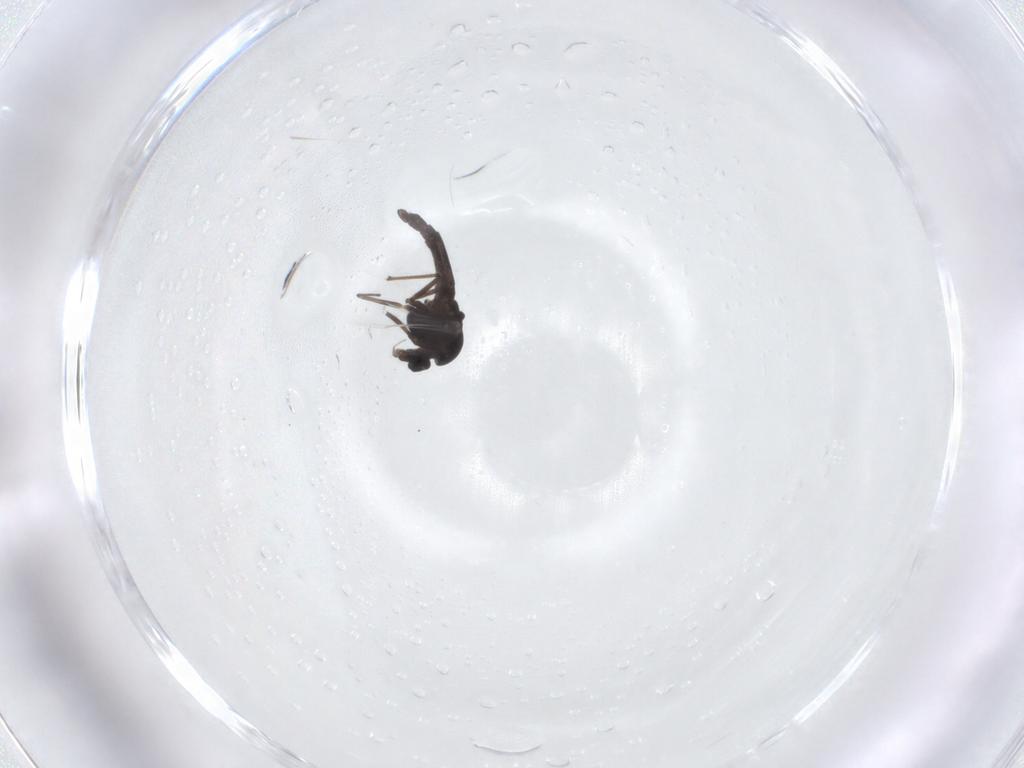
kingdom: Animalia
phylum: Arthropoda
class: Insecta
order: Diptera
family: Chironomidae
